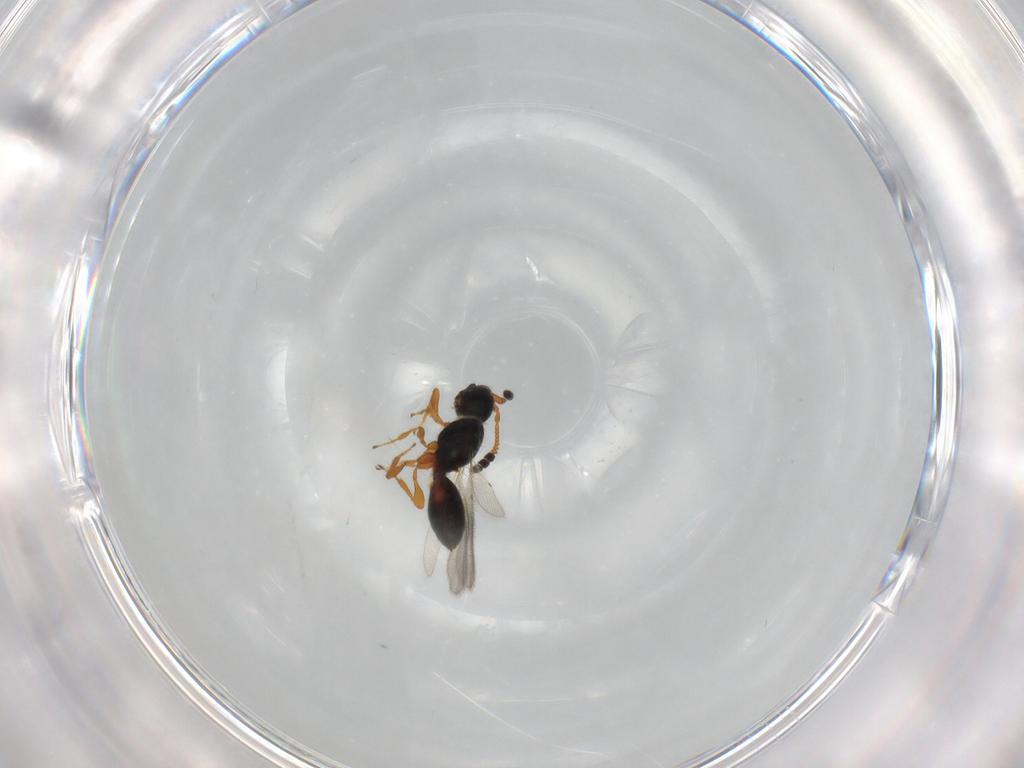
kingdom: Animalia
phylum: Arthropoda
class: Insecta
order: Hymenoptera
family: Diapriidae
